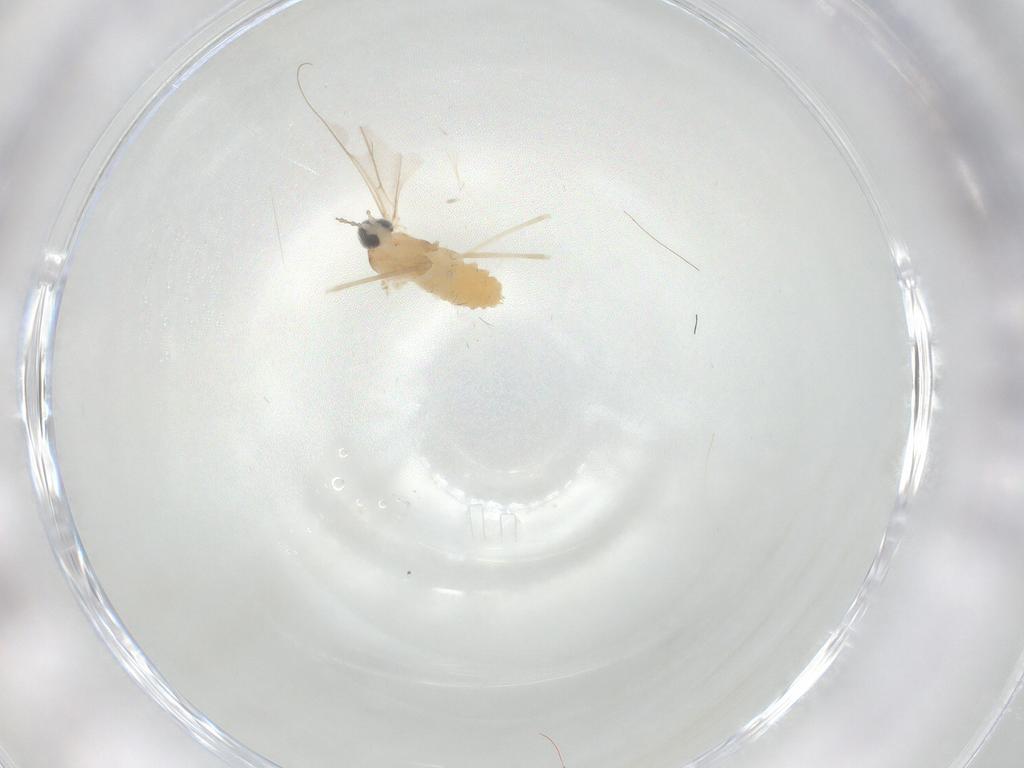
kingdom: Animalia
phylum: Arthropoda
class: Insecta
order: Diptera
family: Cecidomyiidae
